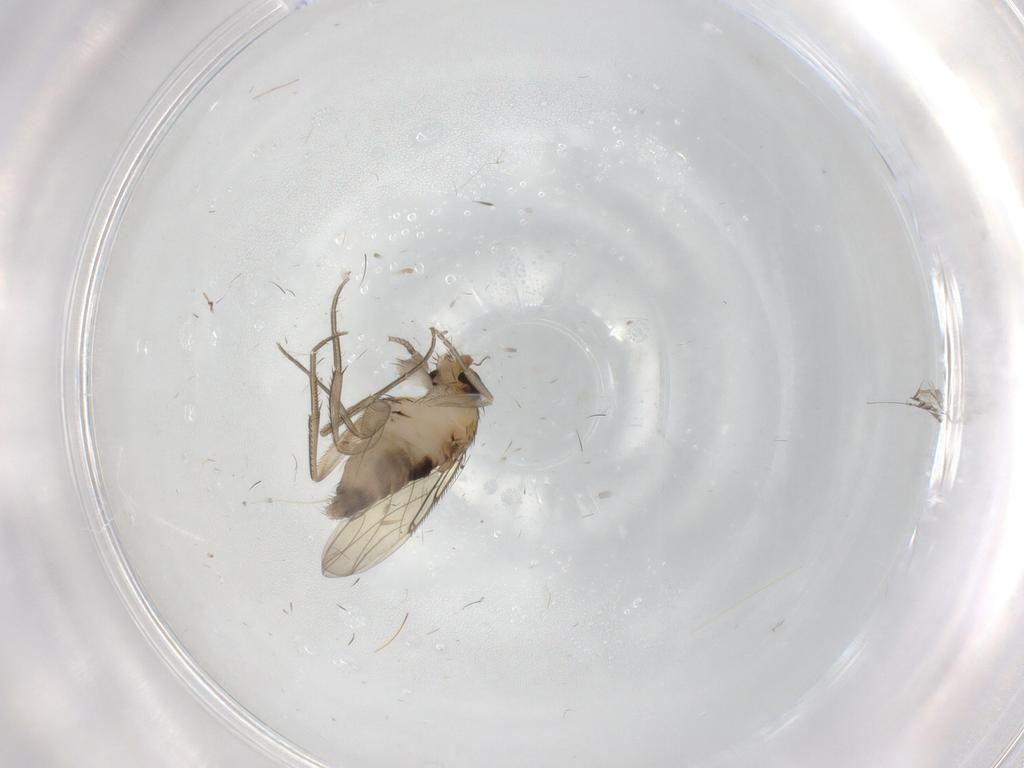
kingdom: Animalia
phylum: Arthropoda
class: Insecta
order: Diptera
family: Phoridae
